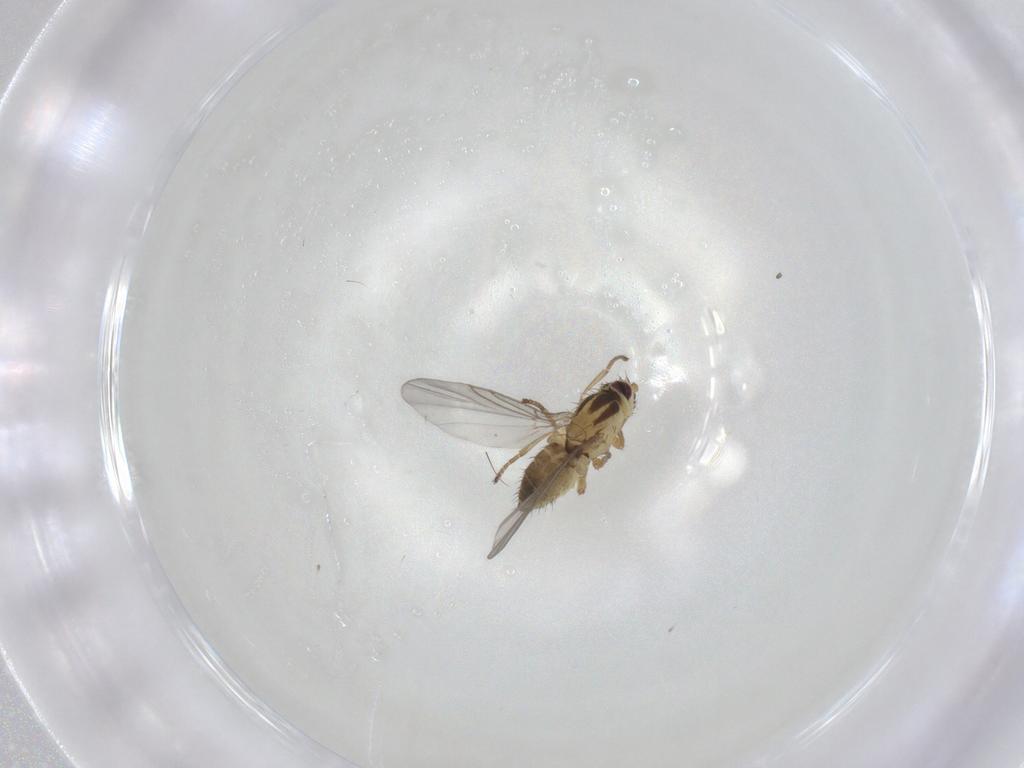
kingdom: Animalia
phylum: Arthropoda
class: Insecta
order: Diptera
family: Agromyzidae
